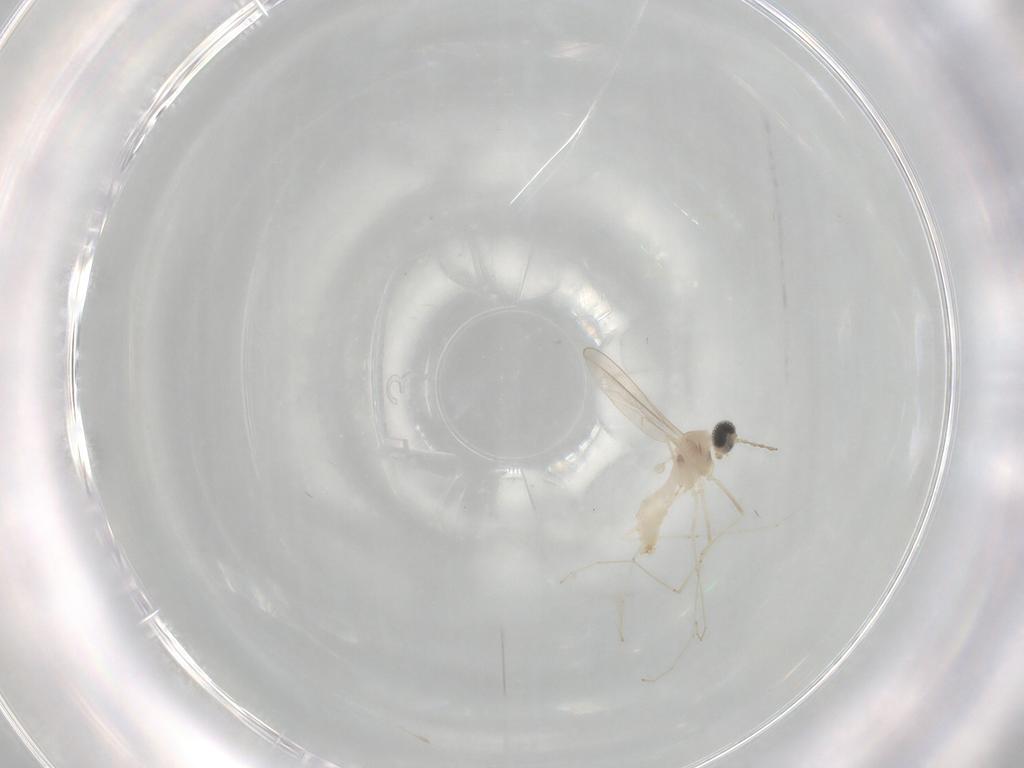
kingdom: Animalia
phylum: Arthropoda
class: Insecta
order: Diptera
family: Cecidomyiidae
